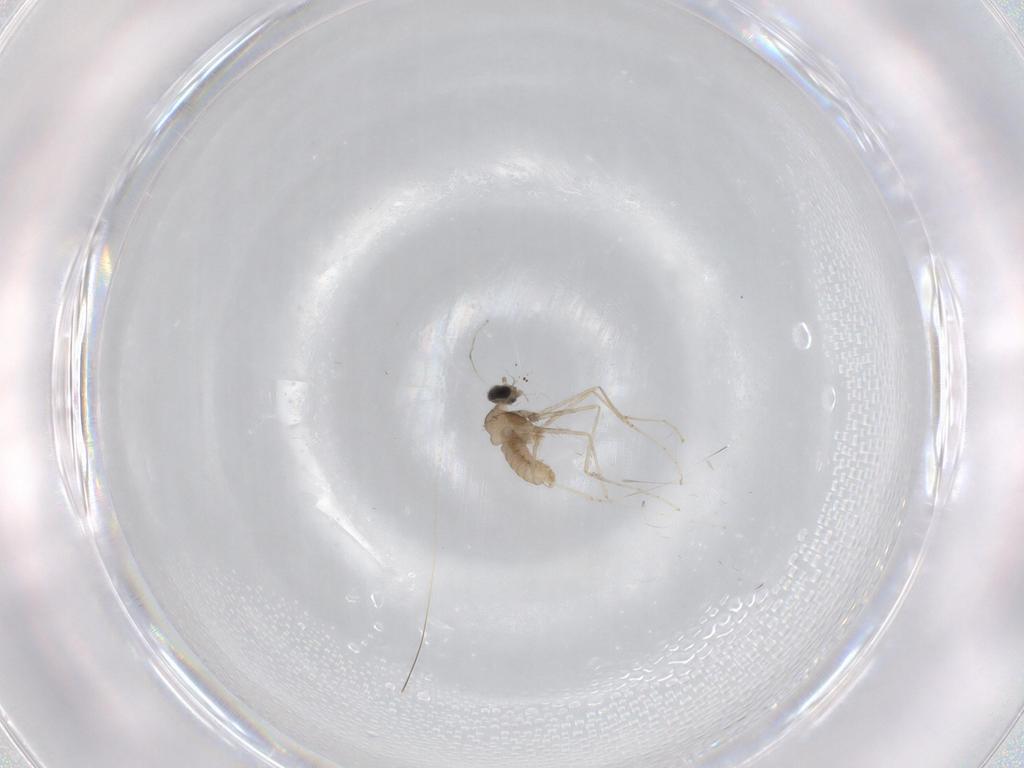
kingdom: Animalia
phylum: Arthropoda
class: Insecta
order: Diptera
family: Cecidomyiidae
